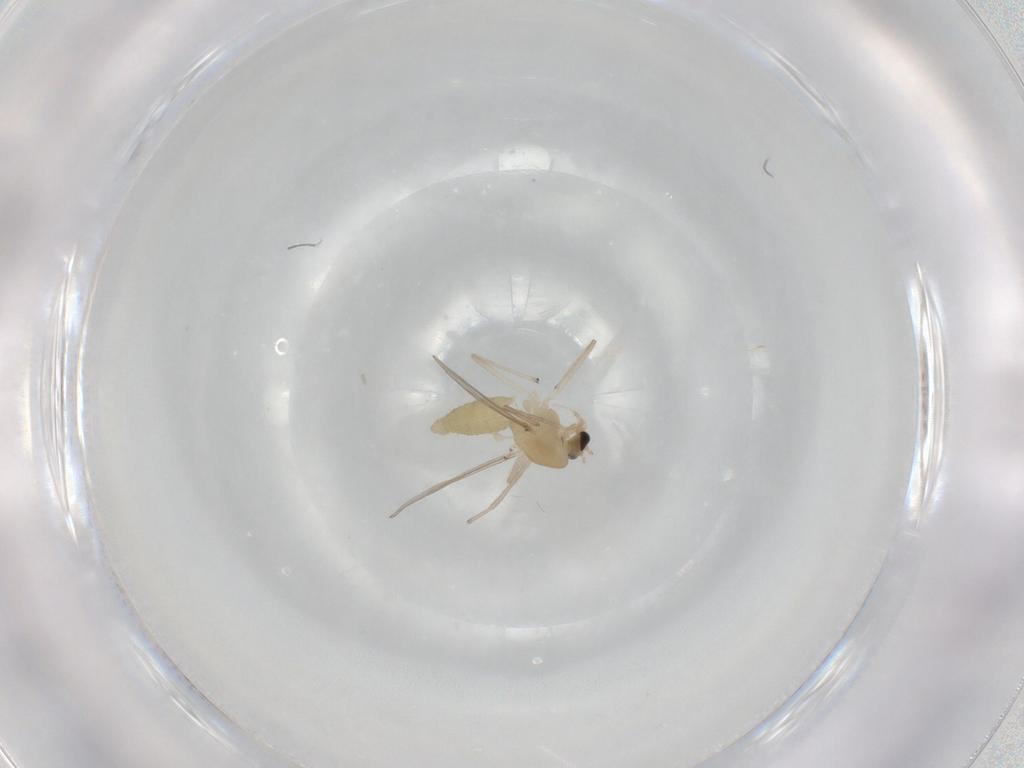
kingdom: Animalia
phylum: Arthropoda
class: Insecta
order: Diptera
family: Chironomidae
